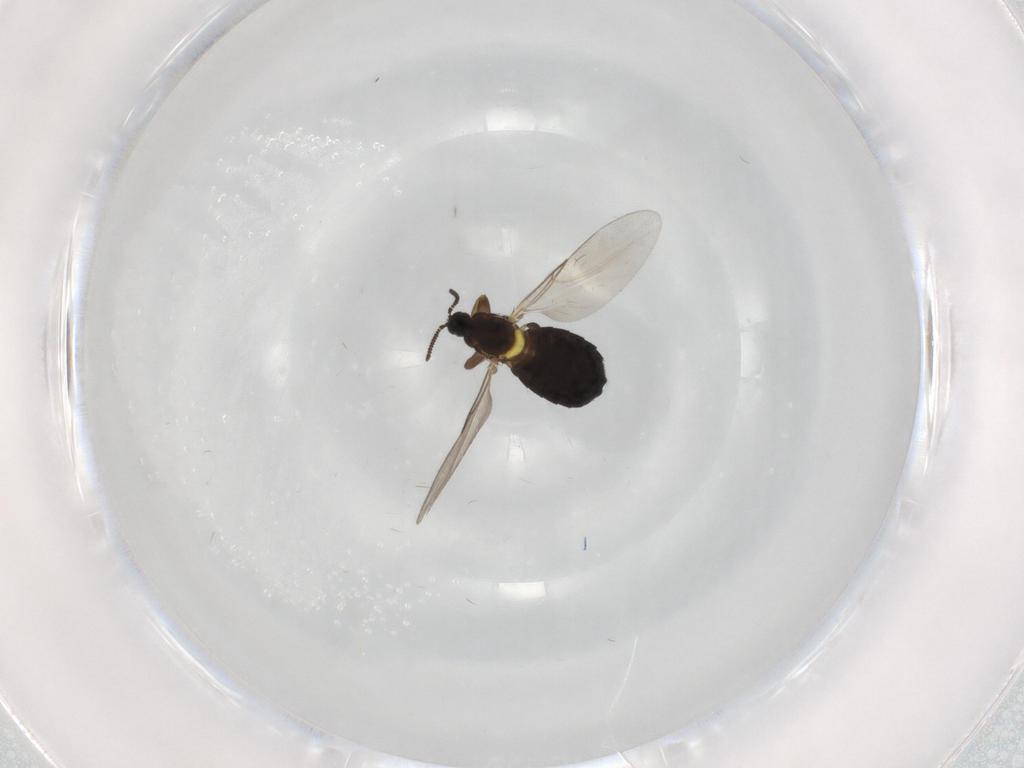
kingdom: Animalia
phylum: Arthropoda
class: Insecta
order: Diptera
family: Scatopsidae
